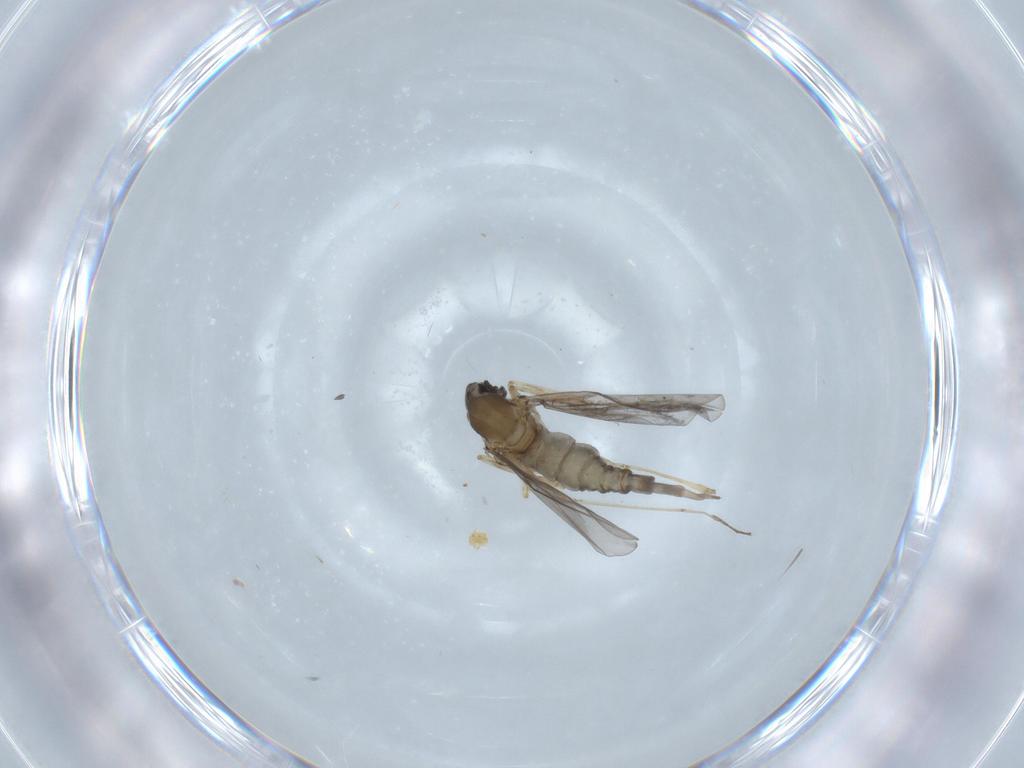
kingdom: Animalia
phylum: Arthropoda
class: Insecta
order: Diptera
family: Cecidomyiidae
